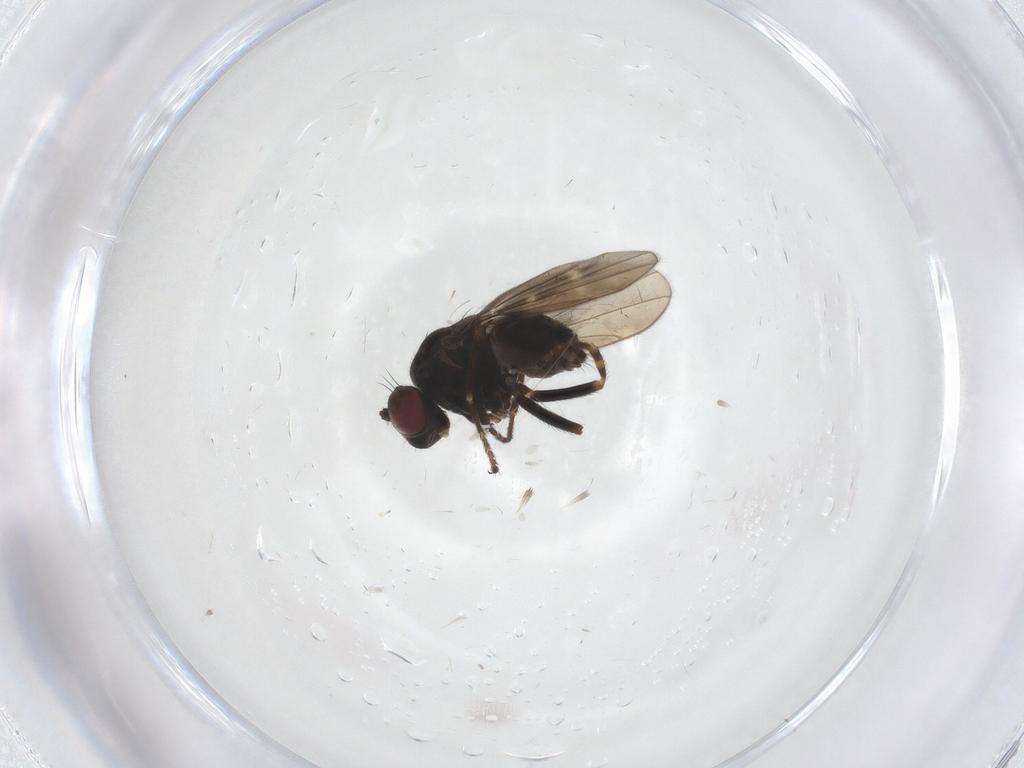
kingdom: Animalia
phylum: Arthropoda
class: Insecta
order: Diptera
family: Ephydridae
